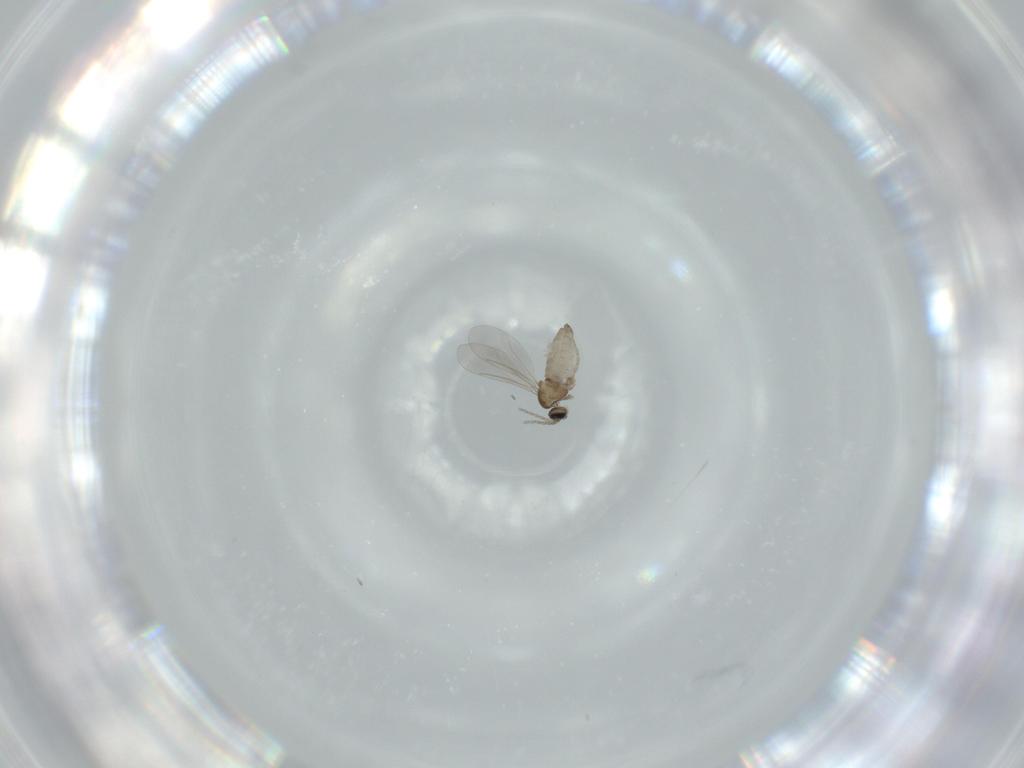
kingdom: Animalia
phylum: Arthropoda
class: Insecta
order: Diptera
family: Cecidomyiidae
